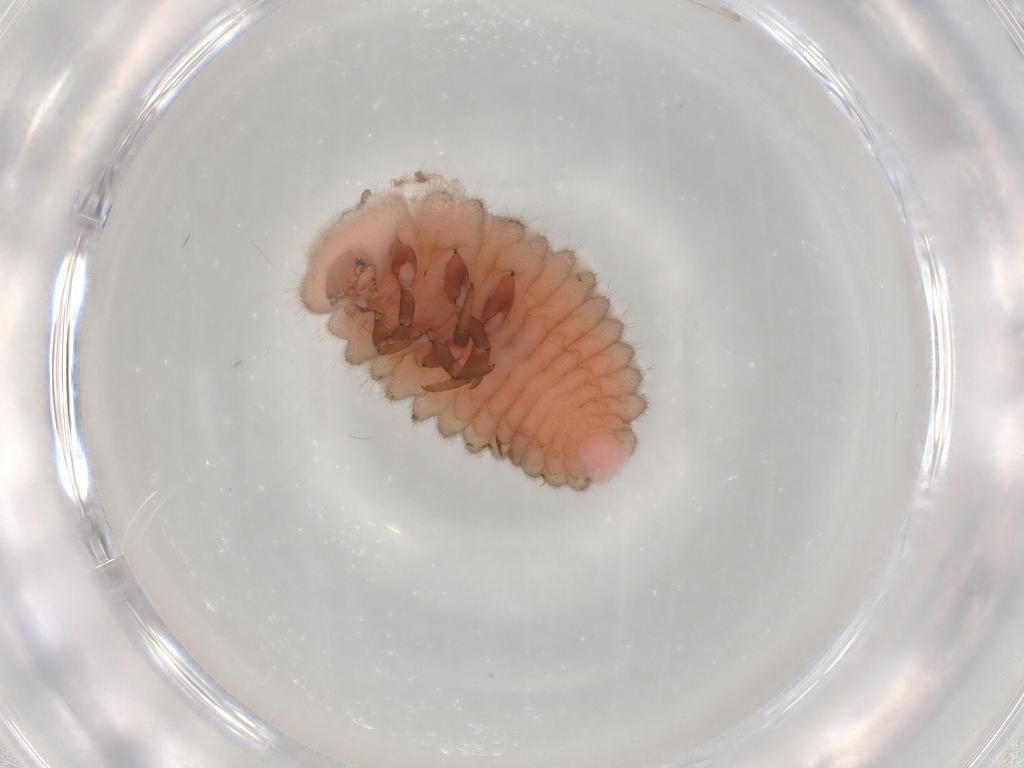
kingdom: Animalia
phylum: Arthropoda
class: Insecta
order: Coleoptera
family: Coccinellidae
